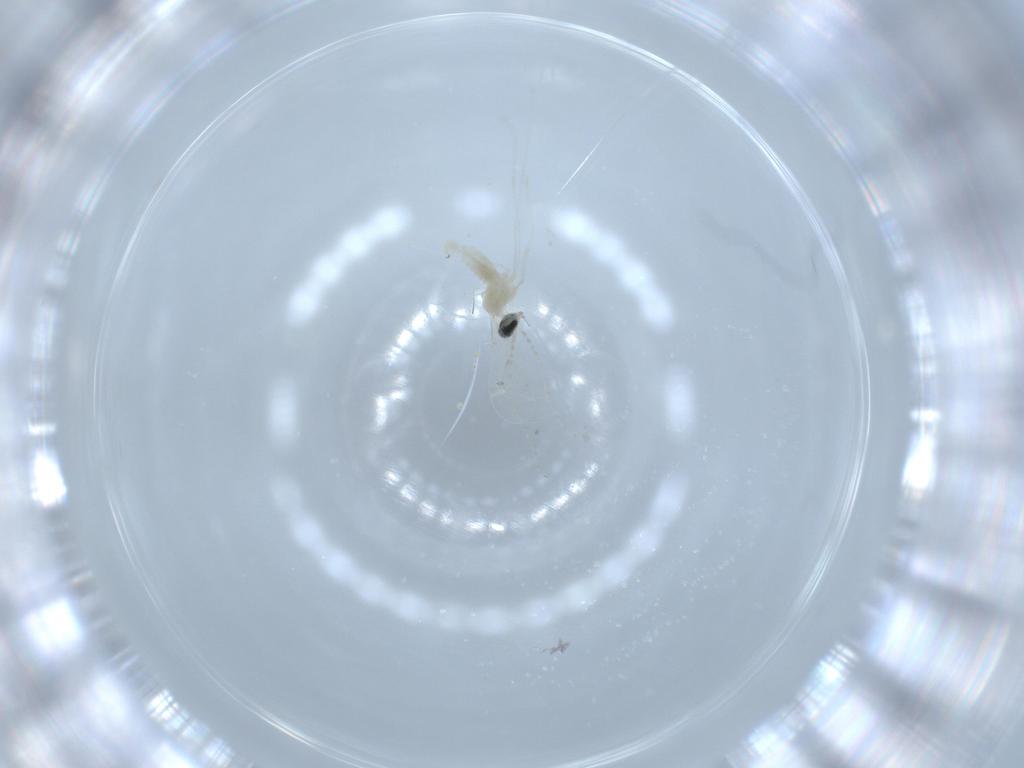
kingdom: Animalia
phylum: Arthropoda
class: Insecta
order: Diptera
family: Cecidomyiidae
